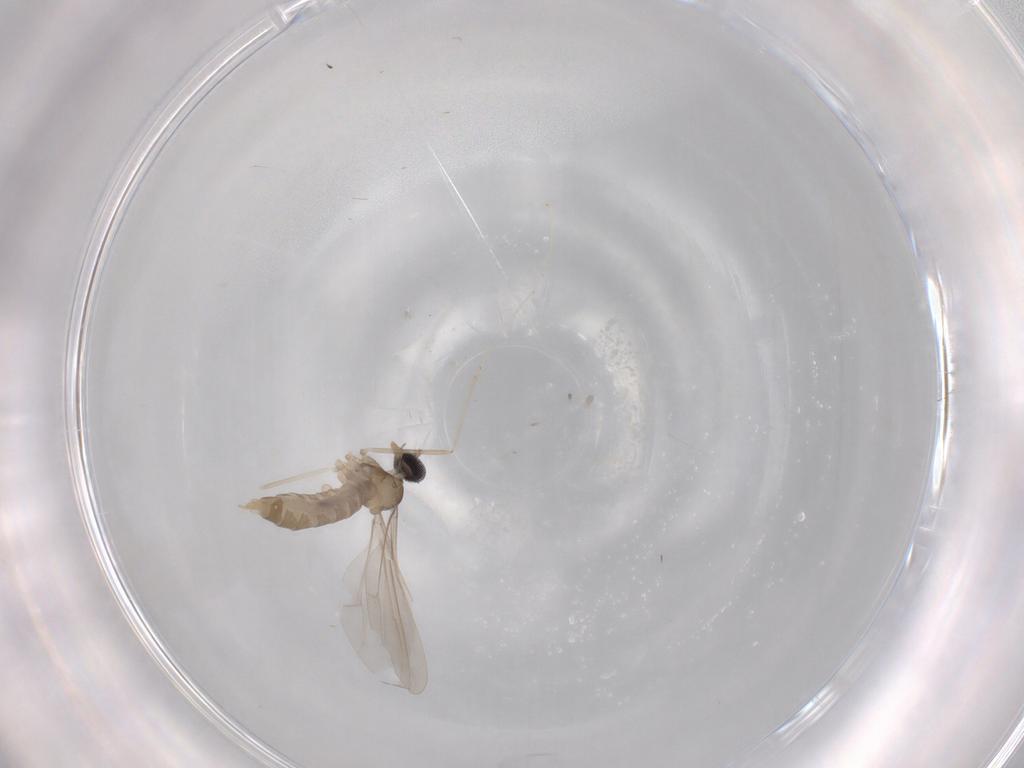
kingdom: Animalia
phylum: Arthropoda
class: Insecta
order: Diptera
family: Cecidomyiidae
